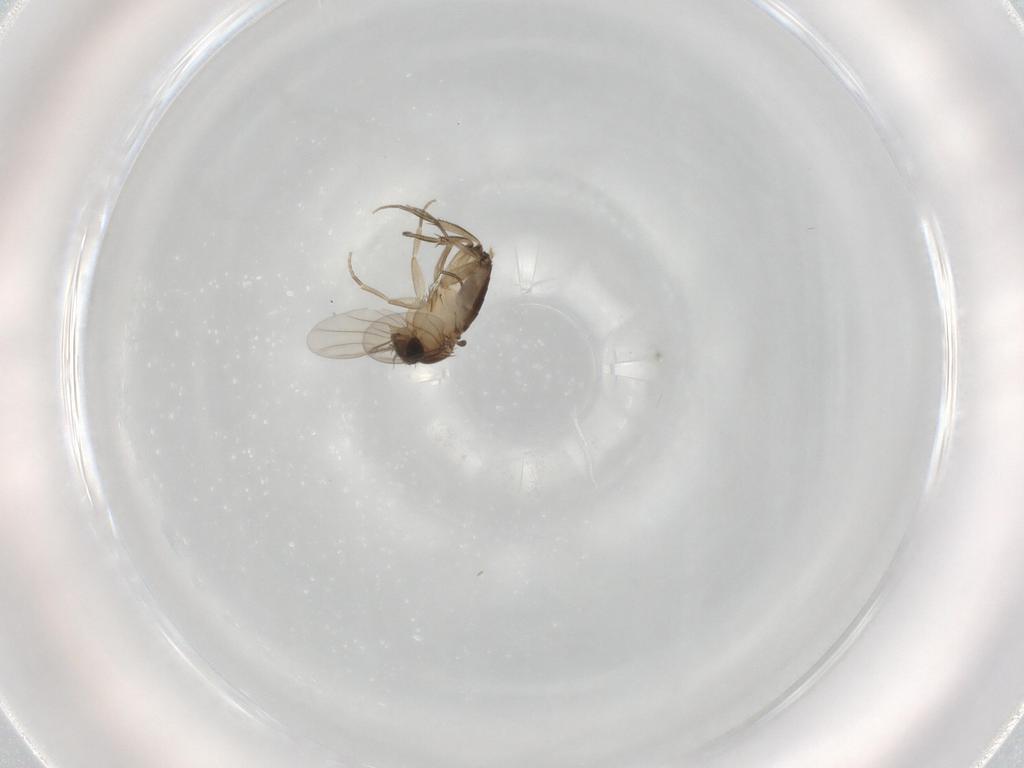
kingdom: Animalia
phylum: Arthropoda
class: Insecta
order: Diptera
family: Phoridae
